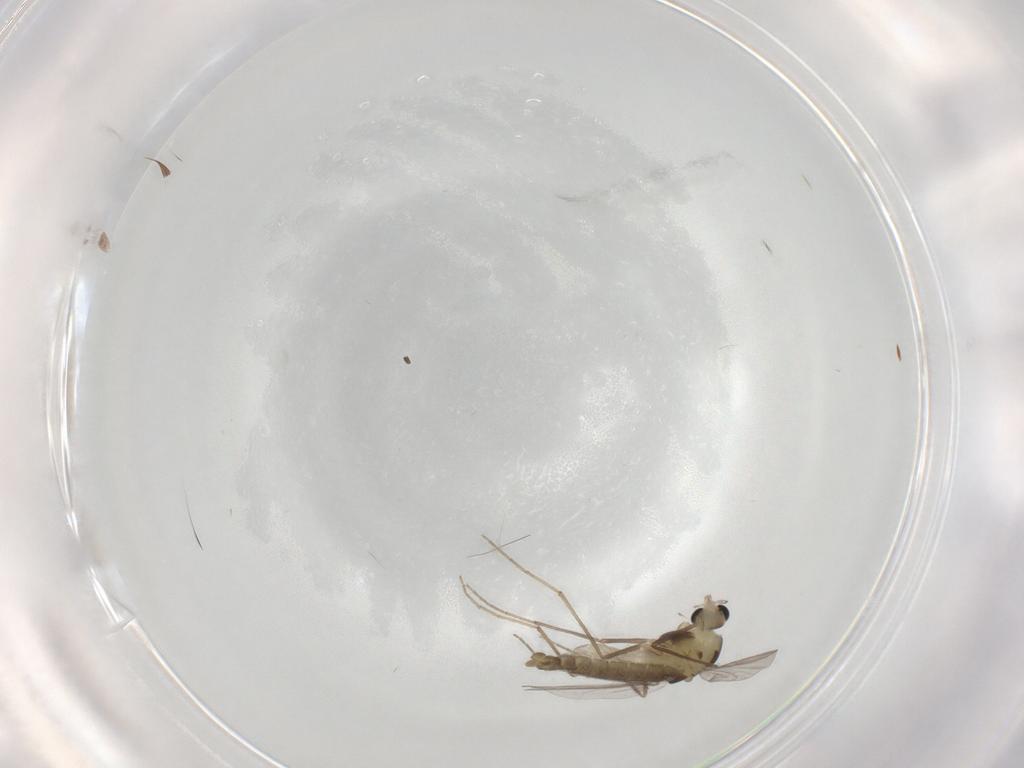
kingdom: Animalia
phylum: Arthropoda
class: Insecta
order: Diptera
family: Chironomidae
